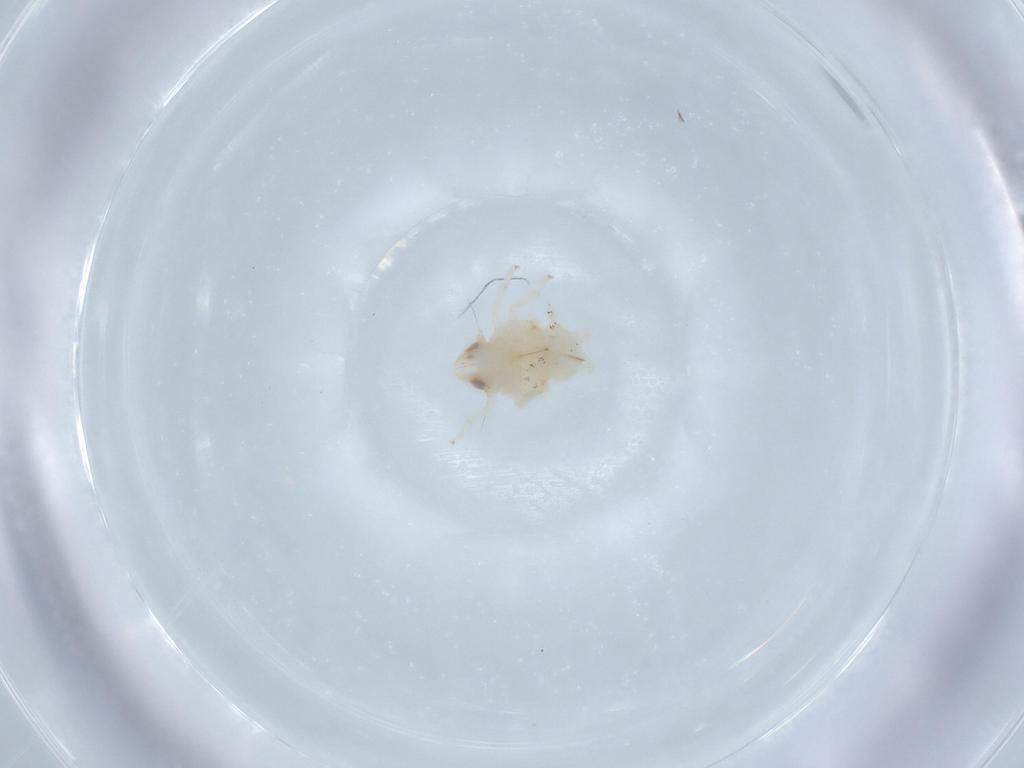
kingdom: Animalia
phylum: Arthropoda
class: Insecta
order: Hemiptera
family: Nogodinidae
